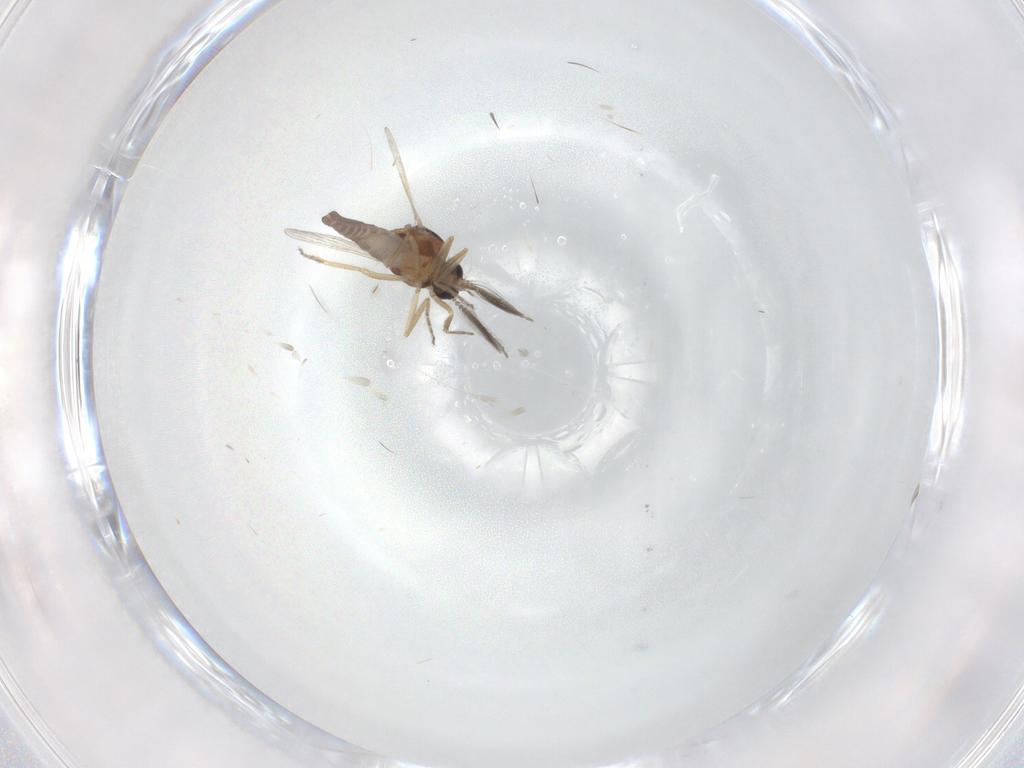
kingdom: Animalia
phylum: Arthropoda
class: Insecta
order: Diptera
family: Ceratopogonidae
